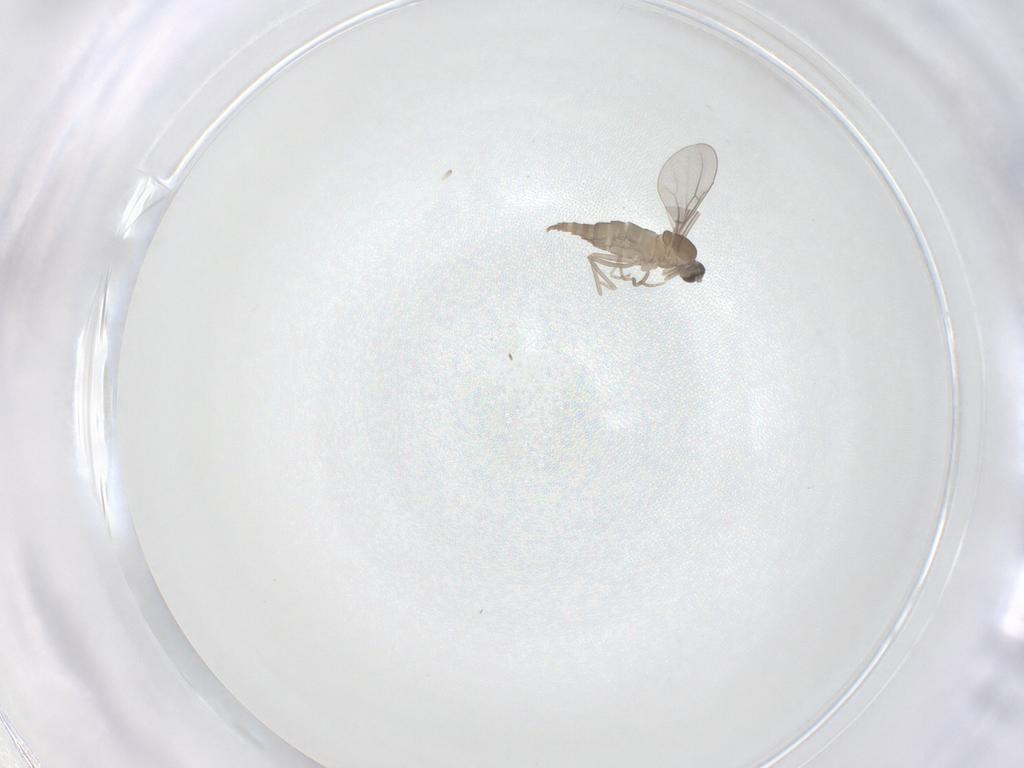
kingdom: Animalia
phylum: Arthropoda
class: Insecta
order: Diptera
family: Cecidomyiidae
